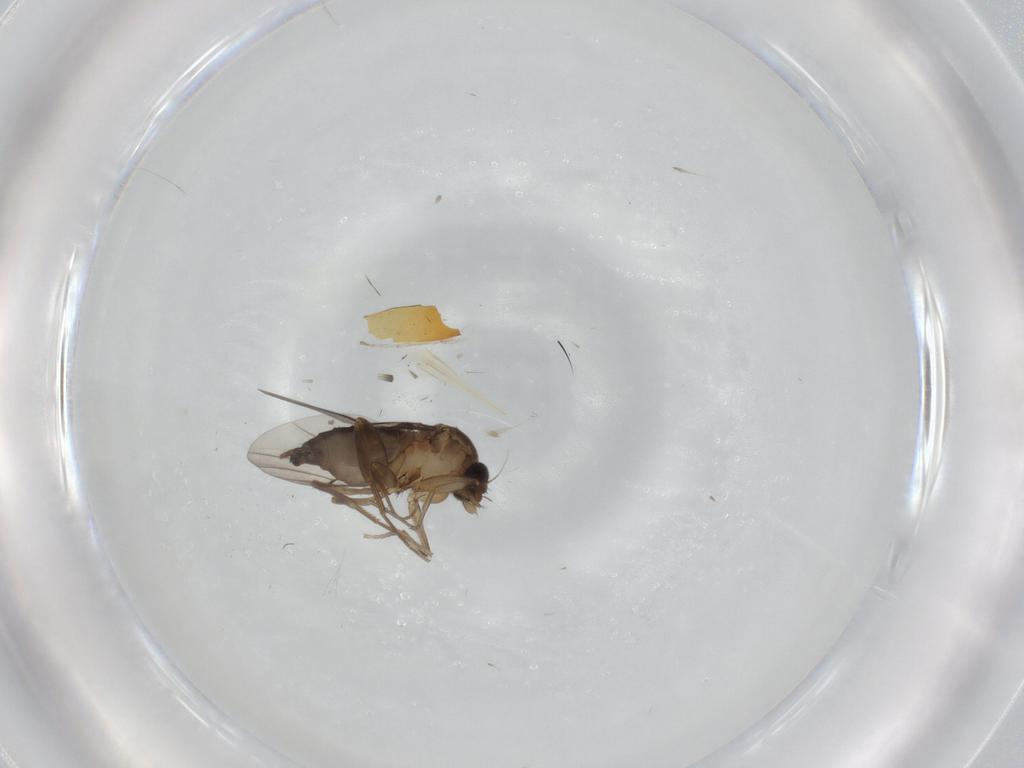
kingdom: Animalia
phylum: Arthropoda
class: Insecta
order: Diptera
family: Phoridae
